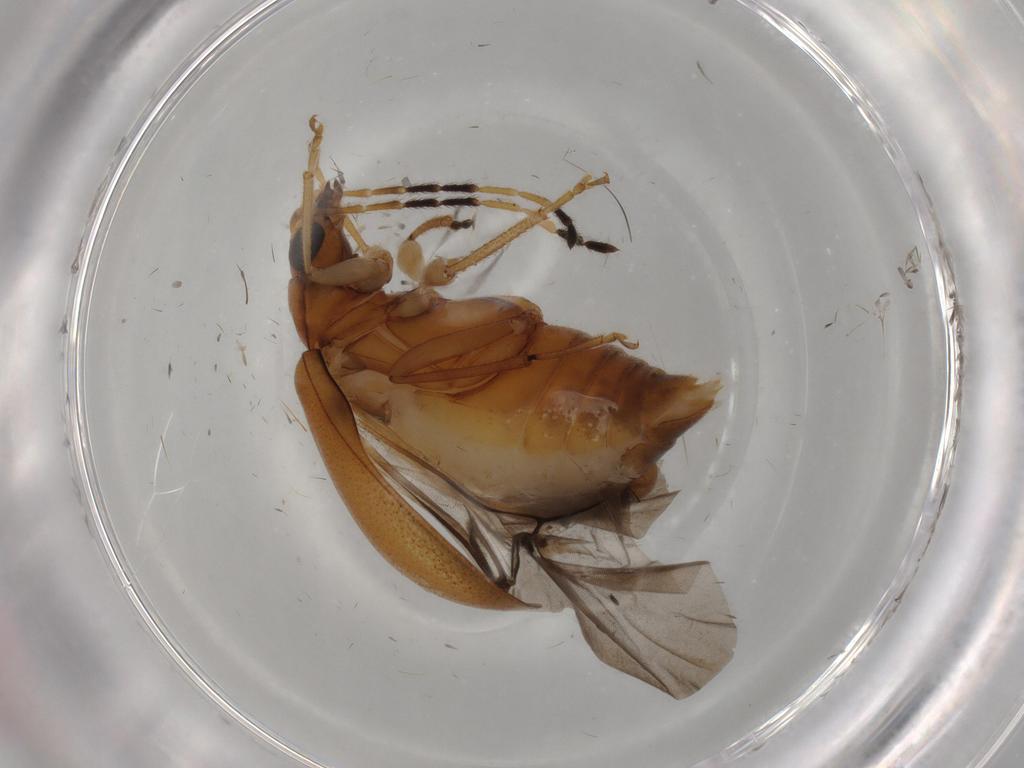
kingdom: Animalia
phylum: Arthropoda
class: Insecta
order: Coleoptera
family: Chrysomelidae
